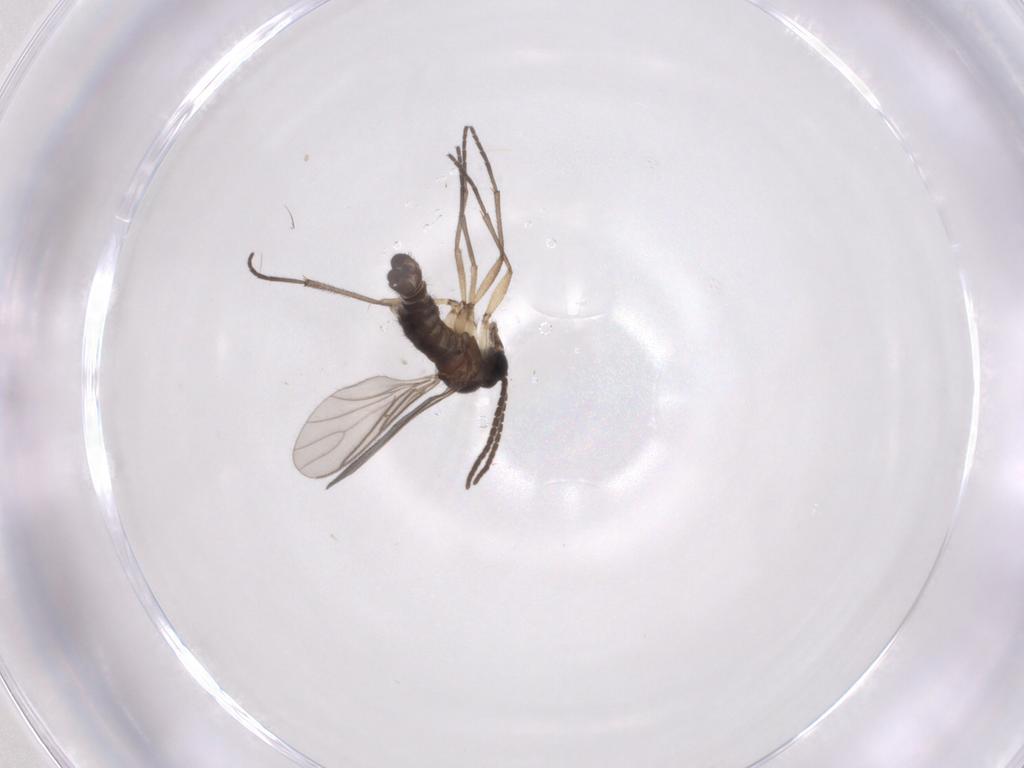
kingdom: Animalia
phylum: Arthropoda
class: Insecta
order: Diptera
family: Sciaridae
